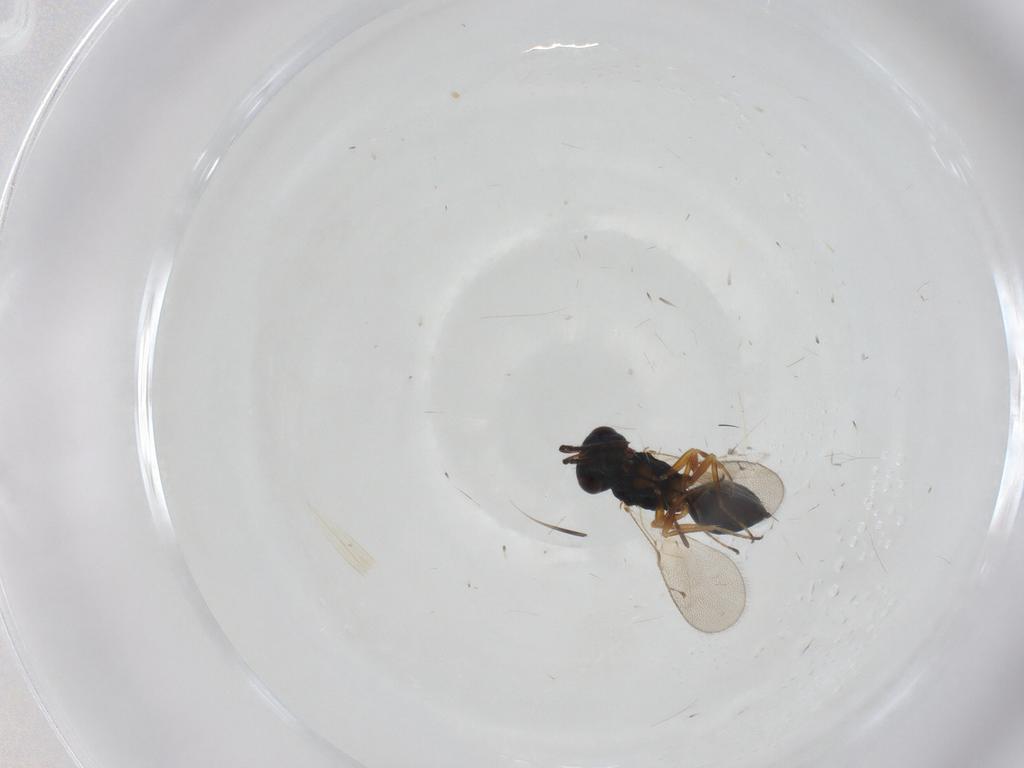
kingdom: Animalia
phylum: Arthropoda
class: Insecta
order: Hymenoptera
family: Pteromalidae
